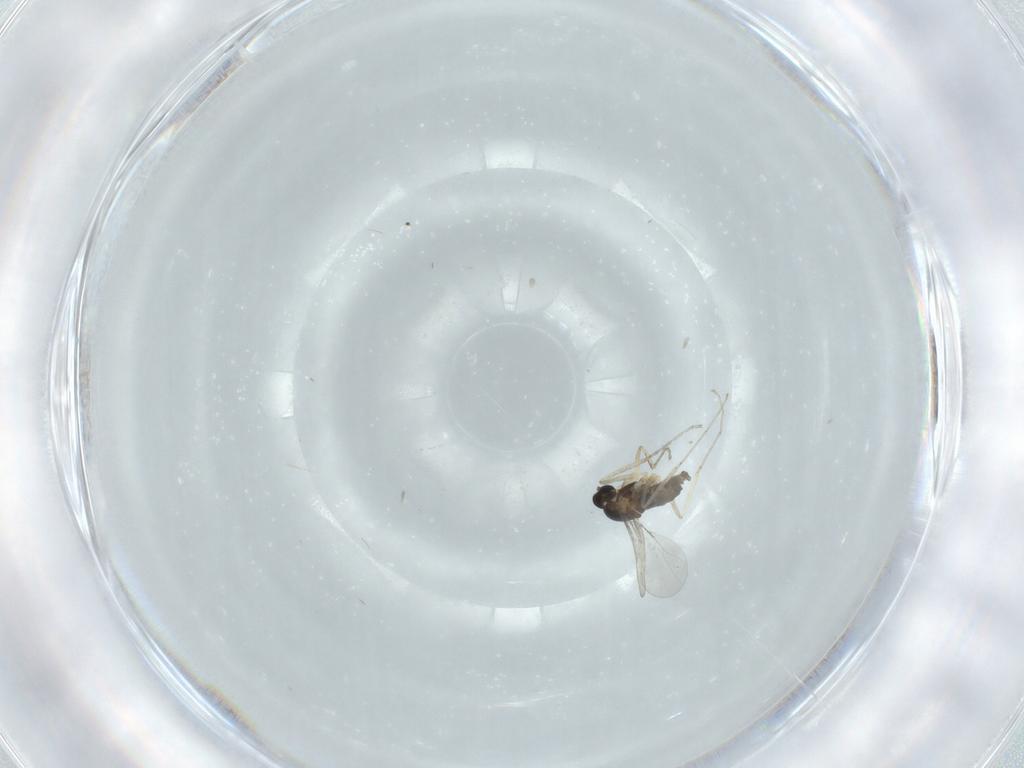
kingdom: Animalia
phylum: Arthropoda
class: Insecta
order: Diptera
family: Cecidomyiidae
